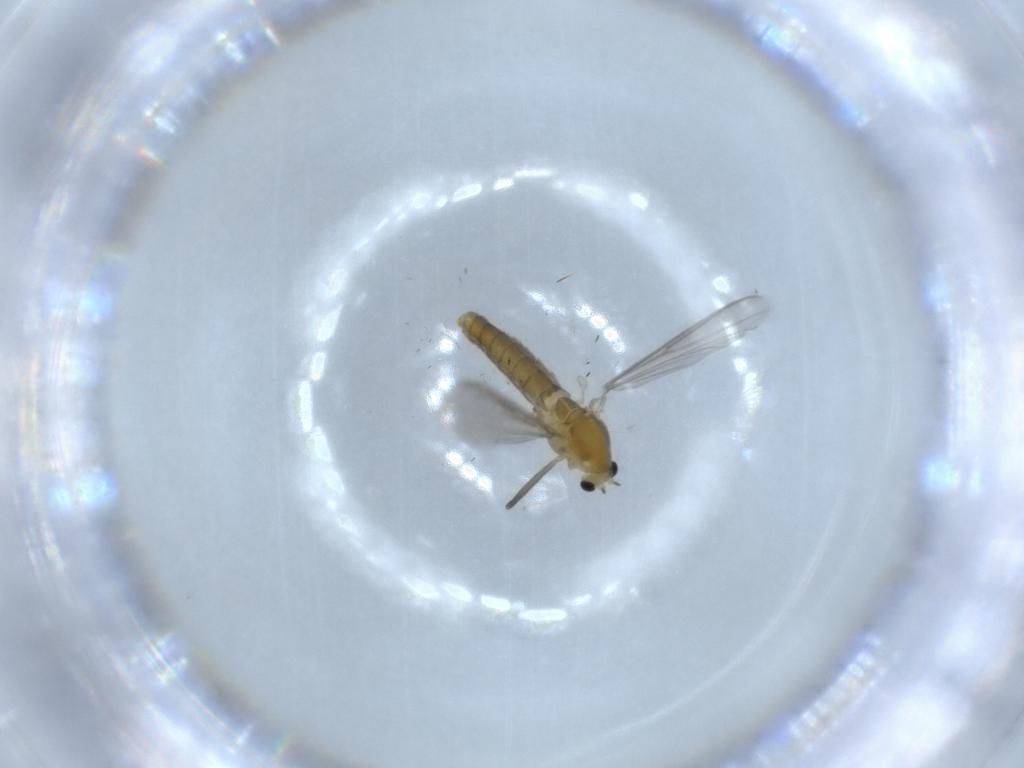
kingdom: Animalia
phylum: Arthropoda
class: Insecta
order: Diptera
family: Chironomidae
